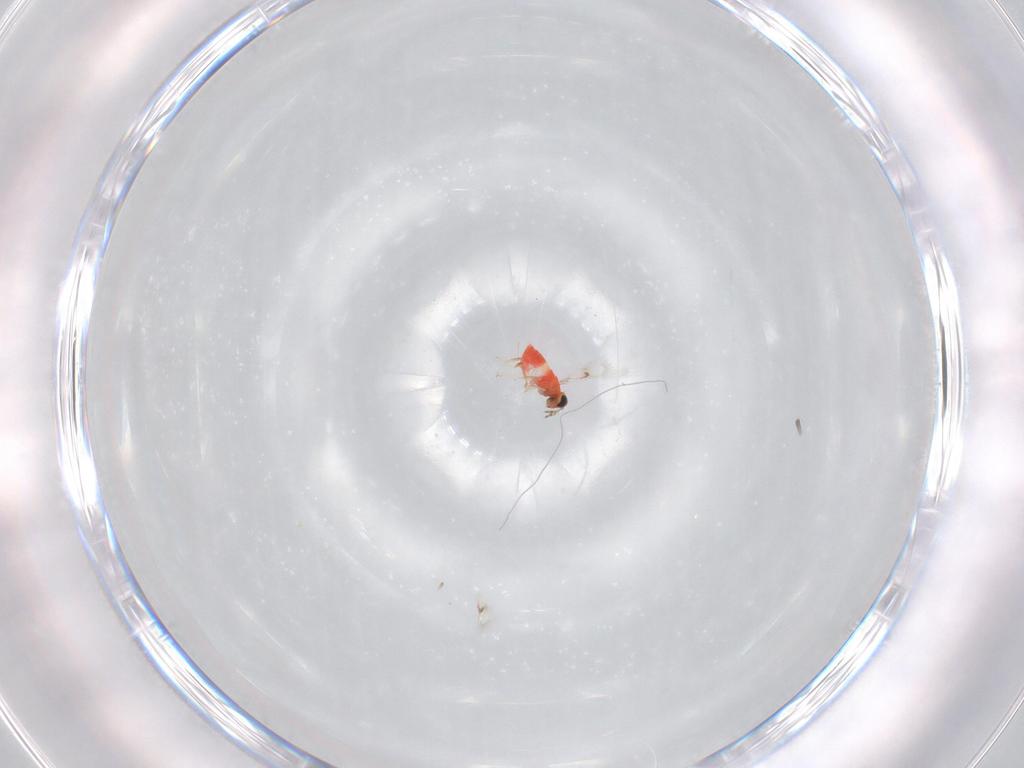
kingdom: Animalia
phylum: Arthropoda
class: Insecta
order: Hymenoptera
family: Trichogrammatidae
